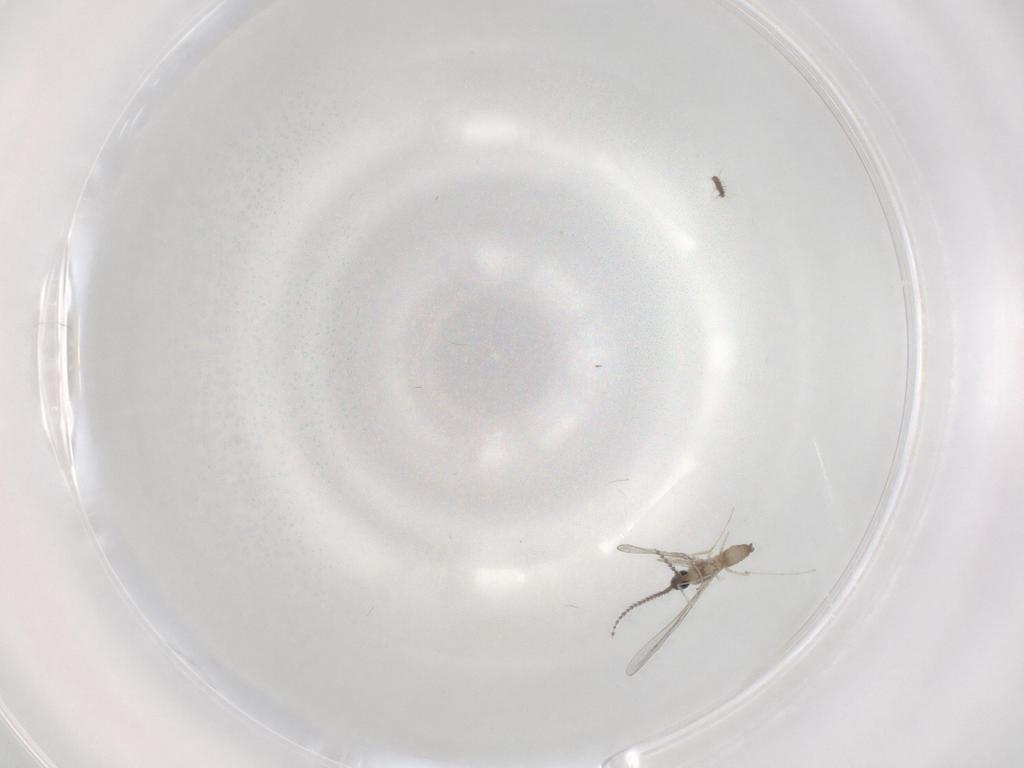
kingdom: Animalia
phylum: Arthropoda
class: Insecta
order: Diptera
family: Cecidomyiidae
